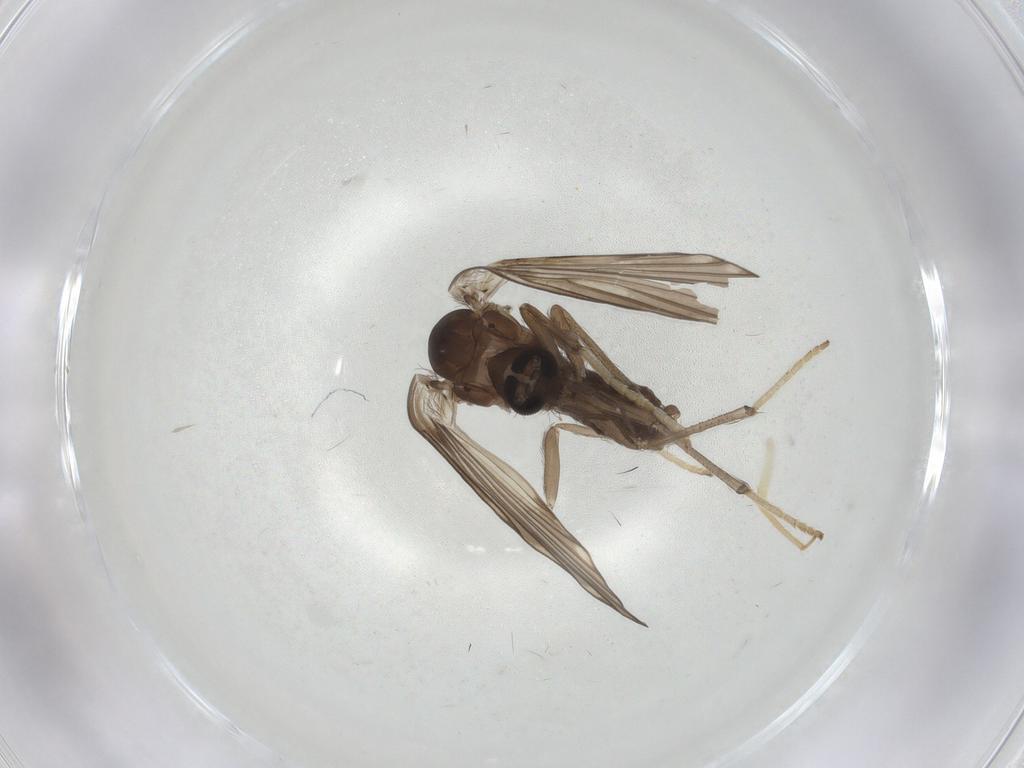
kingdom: Animalia
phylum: Arthropoda
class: Insecta
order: Diptera
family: Psychodidae
